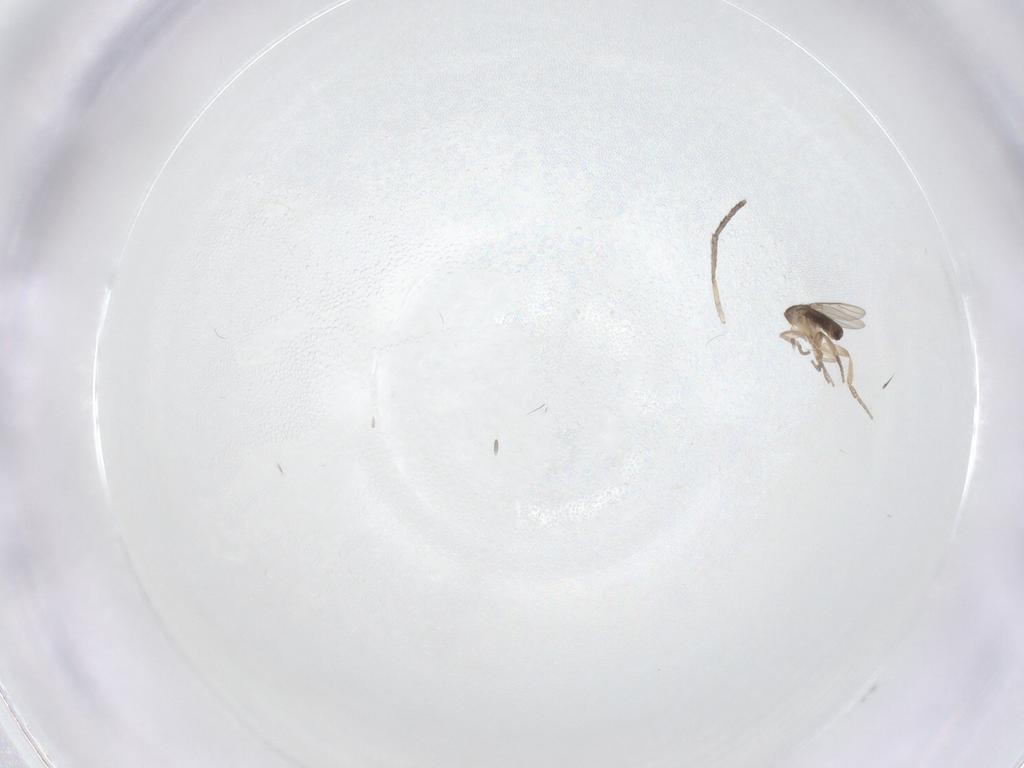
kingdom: Animalia
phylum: Arthropoda
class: Insecta
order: Diptera
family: Phoridae
